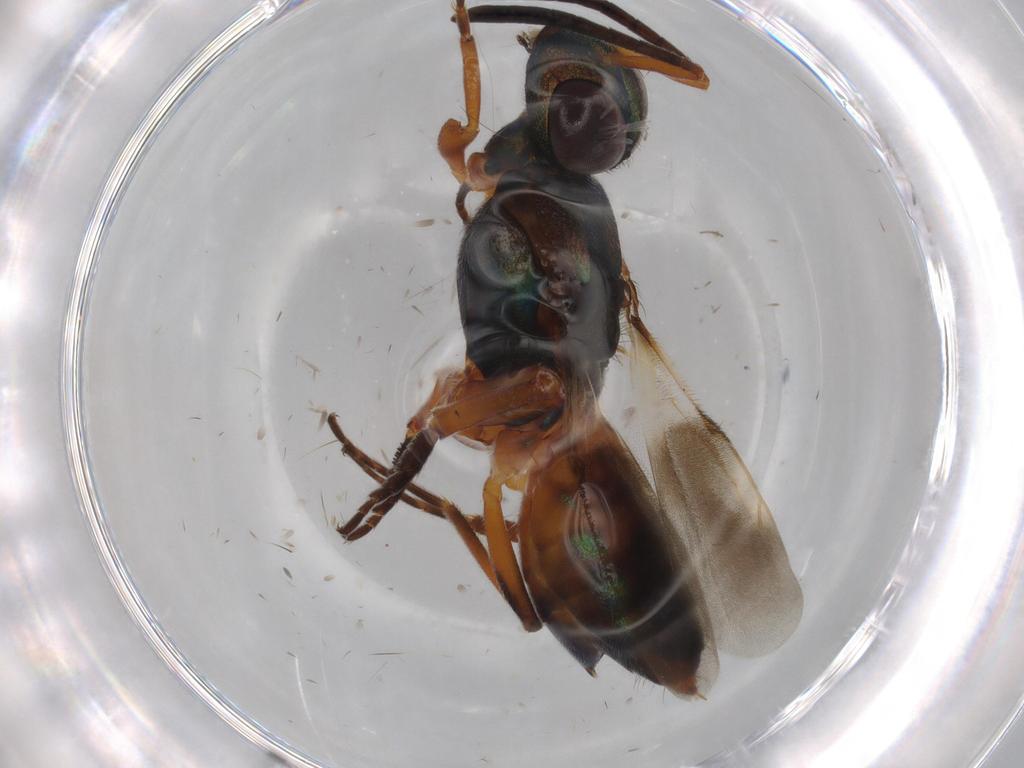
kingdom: Animalia
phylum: Arthropoda
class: Insecta
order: Hymenoptera
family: Eupelmidae
